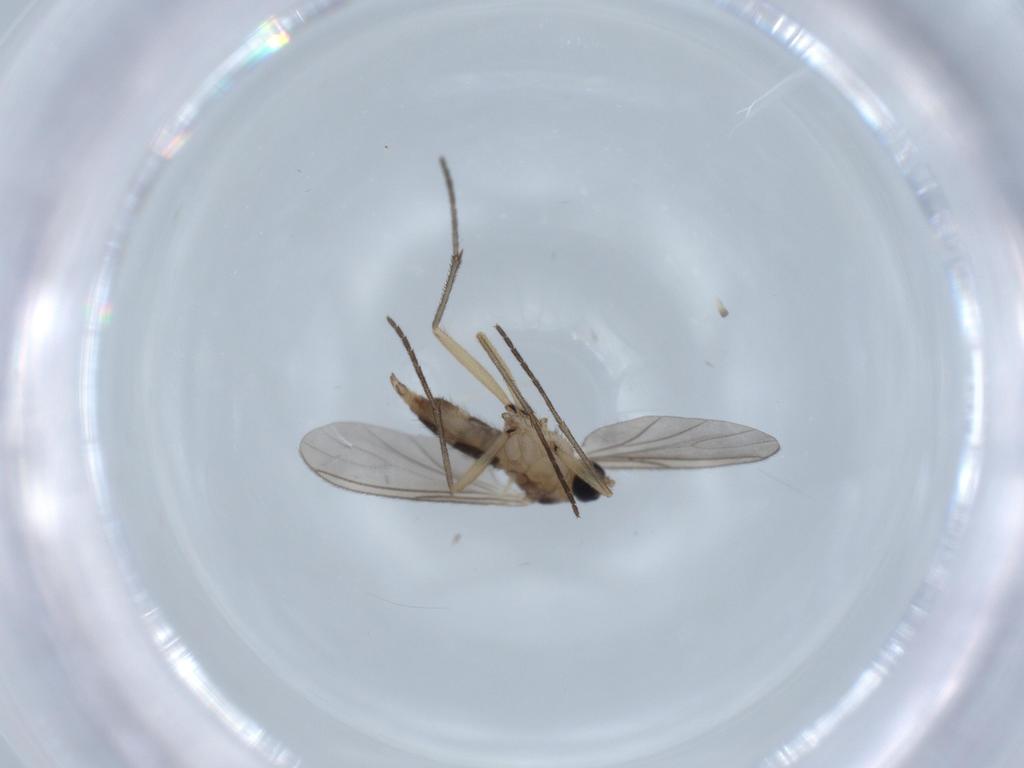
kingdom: Animalia
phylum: Arthropoda
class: Insecta
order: Diptera
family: Sciaridae
